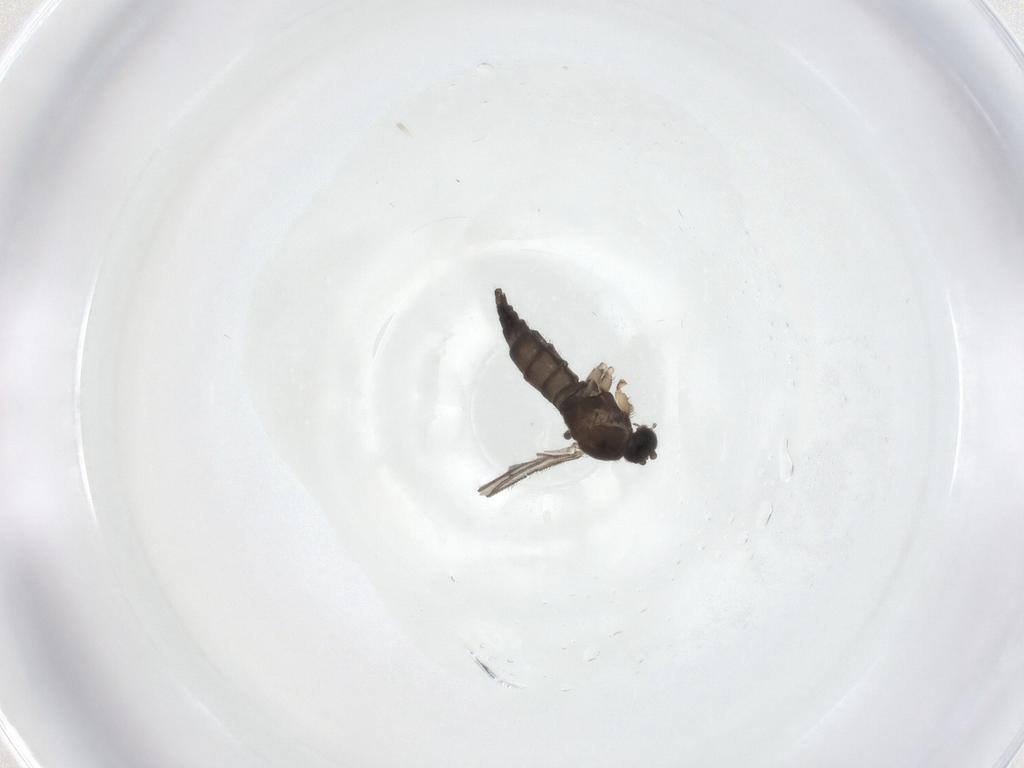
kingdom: Animalia
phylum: Arthropoda
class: Insecta
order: Diptera
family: Sciaridae
